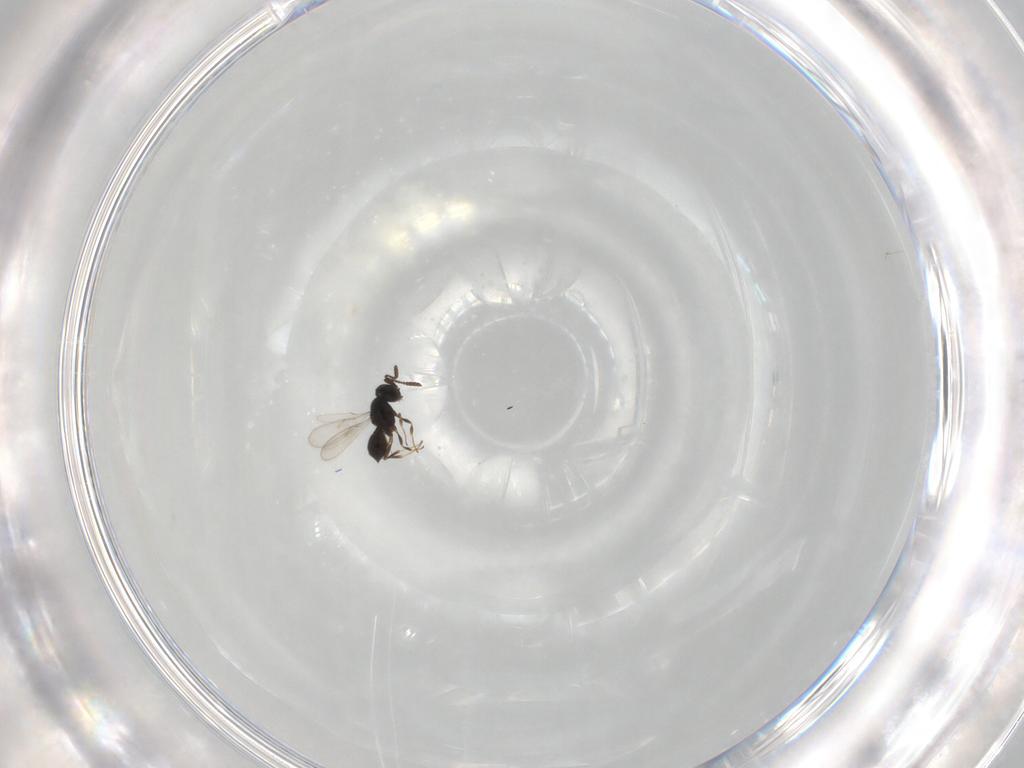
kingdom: Animalia
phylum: Arthropoda
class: Insecta
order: Hymenoptera
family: Scelionidae
